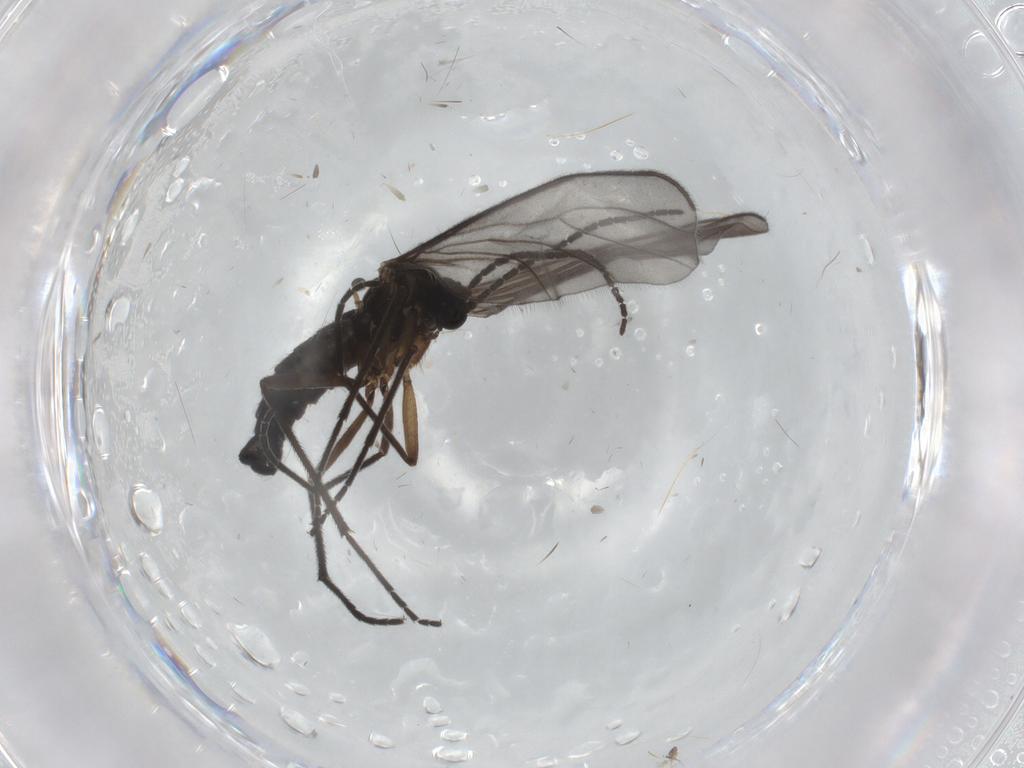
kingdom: Animalia
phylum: Arthropoda
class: Insecta
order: Diptera
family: Sciaridae
